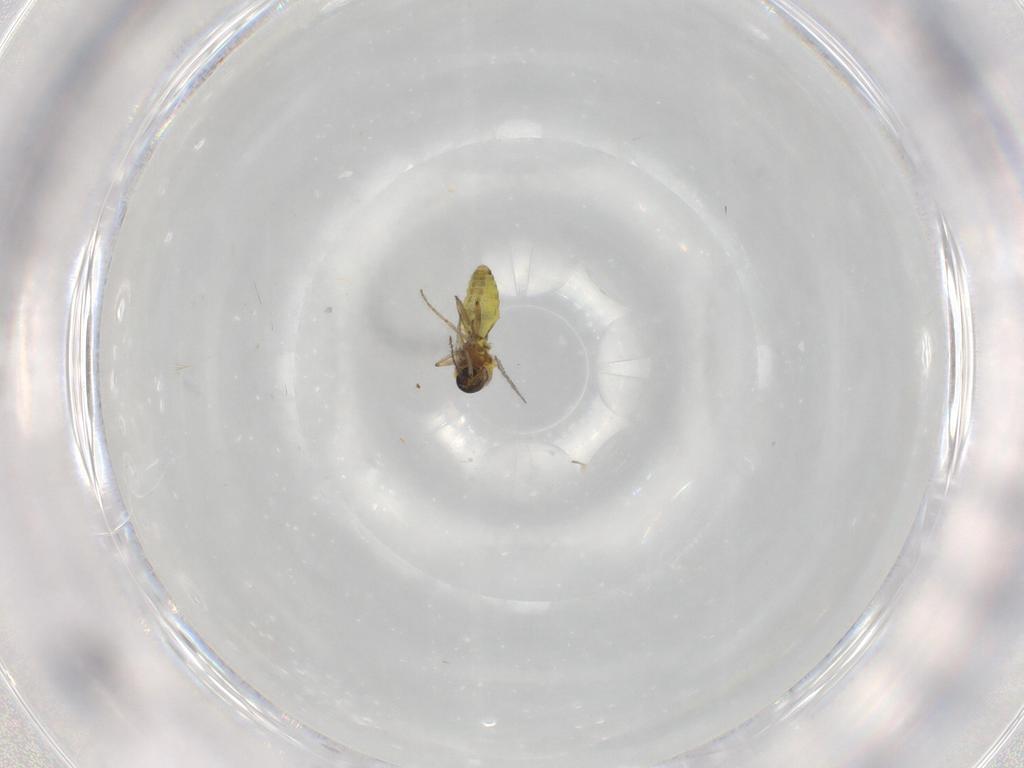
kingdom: Animalia
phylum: Arthropoda
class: Insecta
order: Diptera
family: Ceratopogonidae
